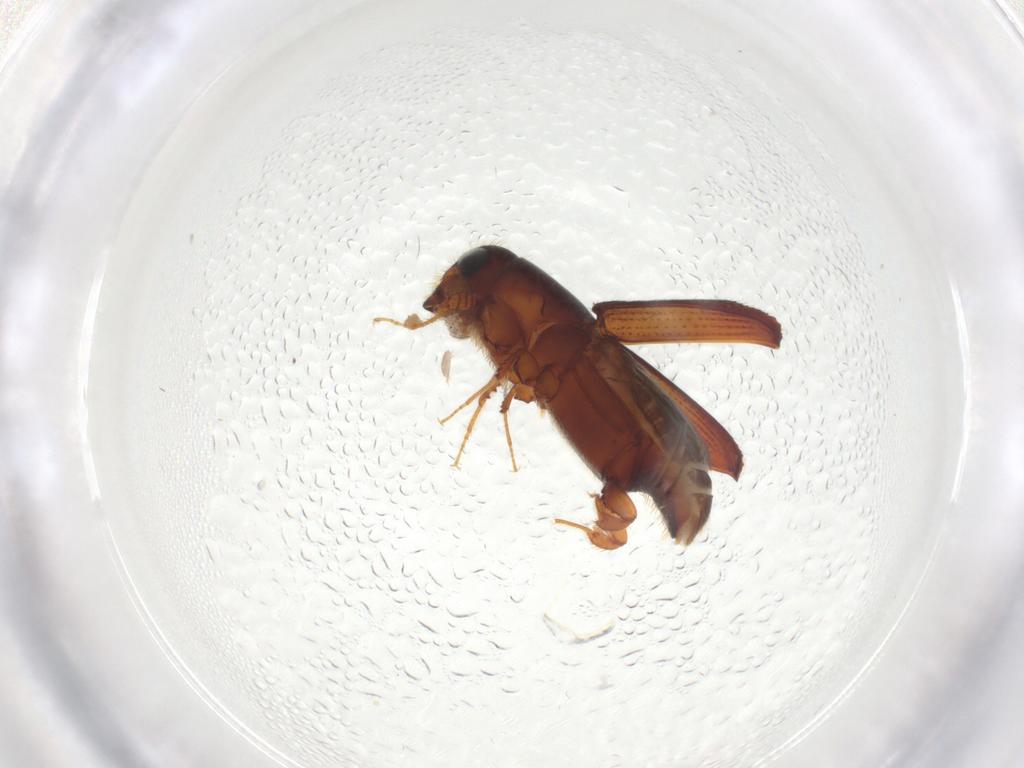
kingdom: Animalia
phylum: Arthropoda
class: Insecta
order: Coleoptera
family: Curculionidae
